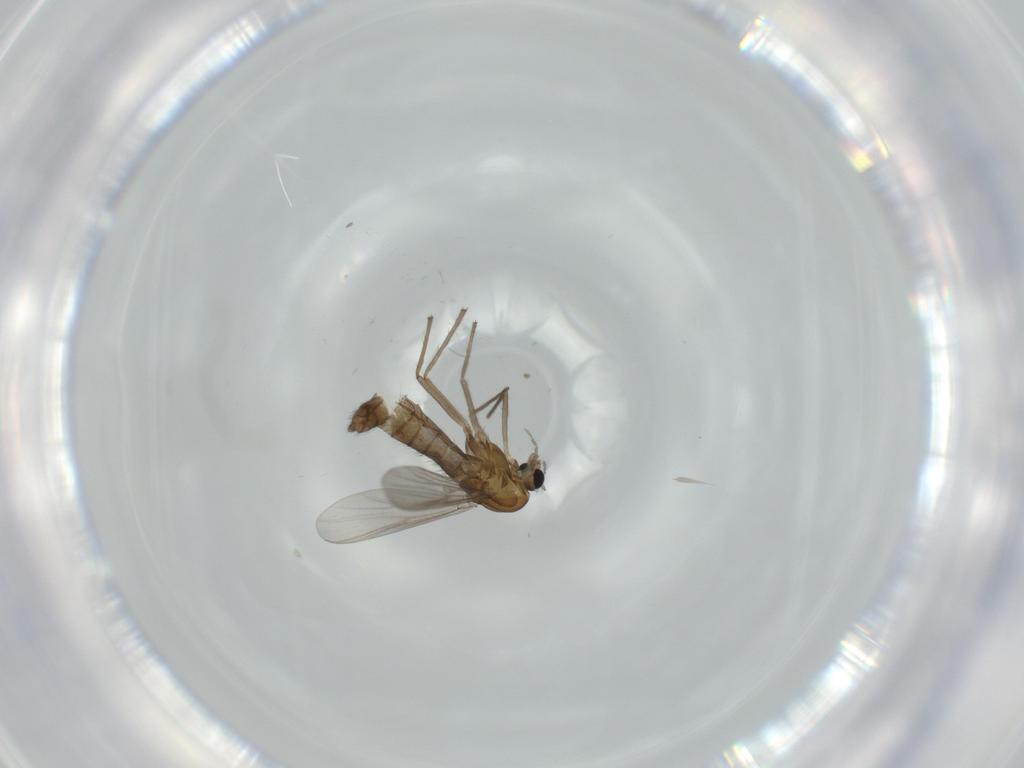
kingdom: Animalia
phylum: Arthropoda
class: Insecta
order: Diptera
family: Chironomidae
